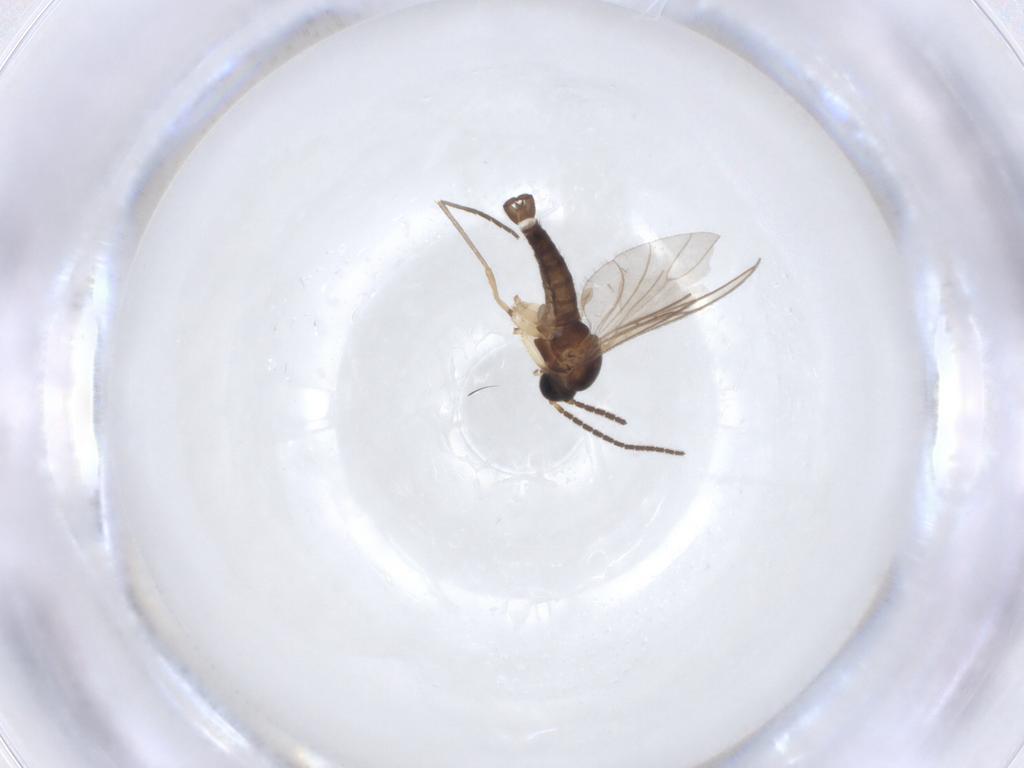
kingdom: Animalia
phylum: Arthropoda
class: Insecta
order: Diptera
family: Sciaridae
